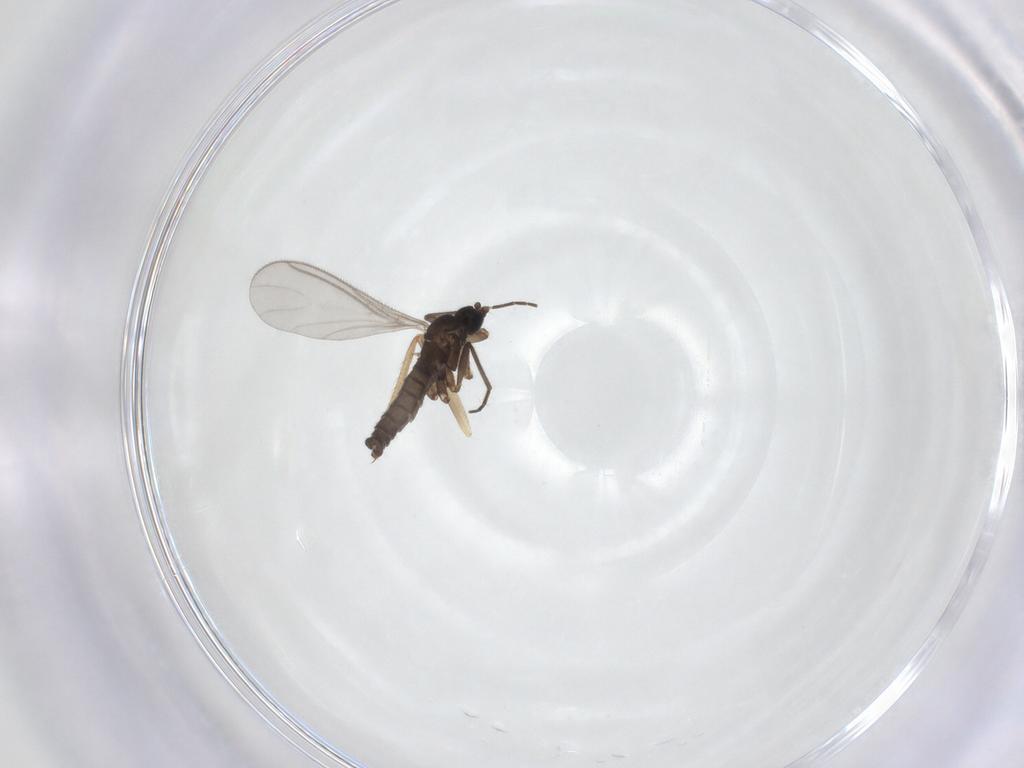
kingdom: Animalia
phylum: Arthropoda
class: Insecta
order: Diptera
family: Chironomidae
